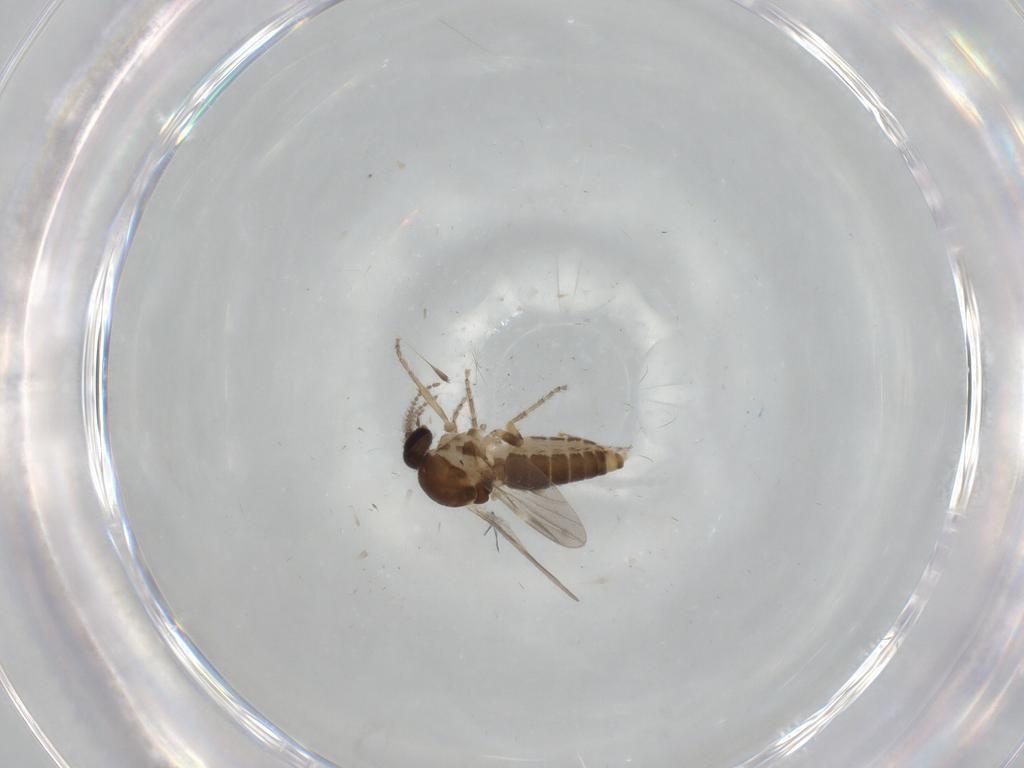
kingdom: Animalia
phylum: Arthropoda
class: Insecta
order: Diptera
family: Ceratopogonidae
